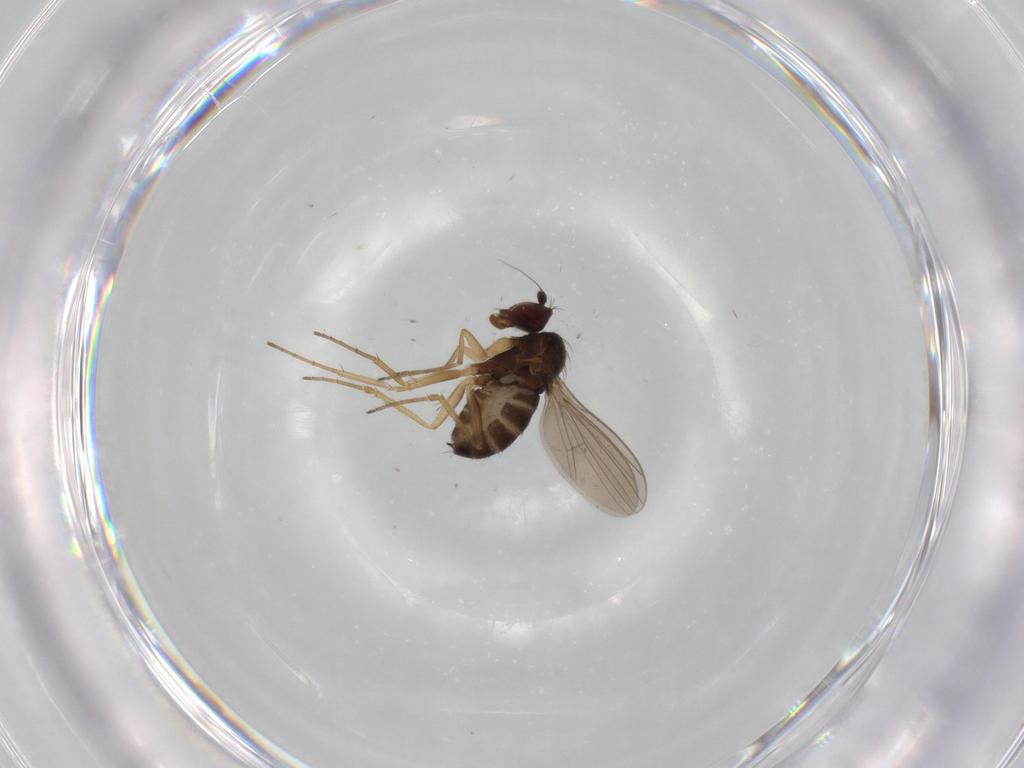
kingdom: Animalia
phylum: Arthropoda
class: Insecta
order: Diptera
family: Dolichopodidae
